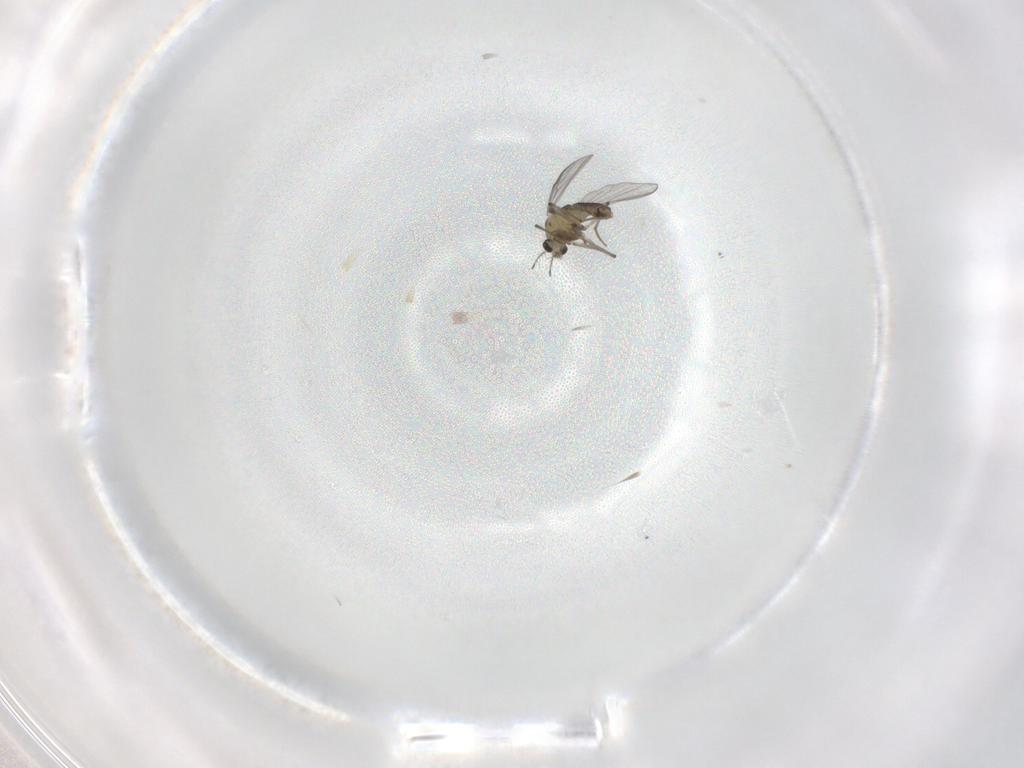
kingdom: Animalia
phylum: Arthropoda
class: Insecta
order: Diptera
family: Chironomidae
